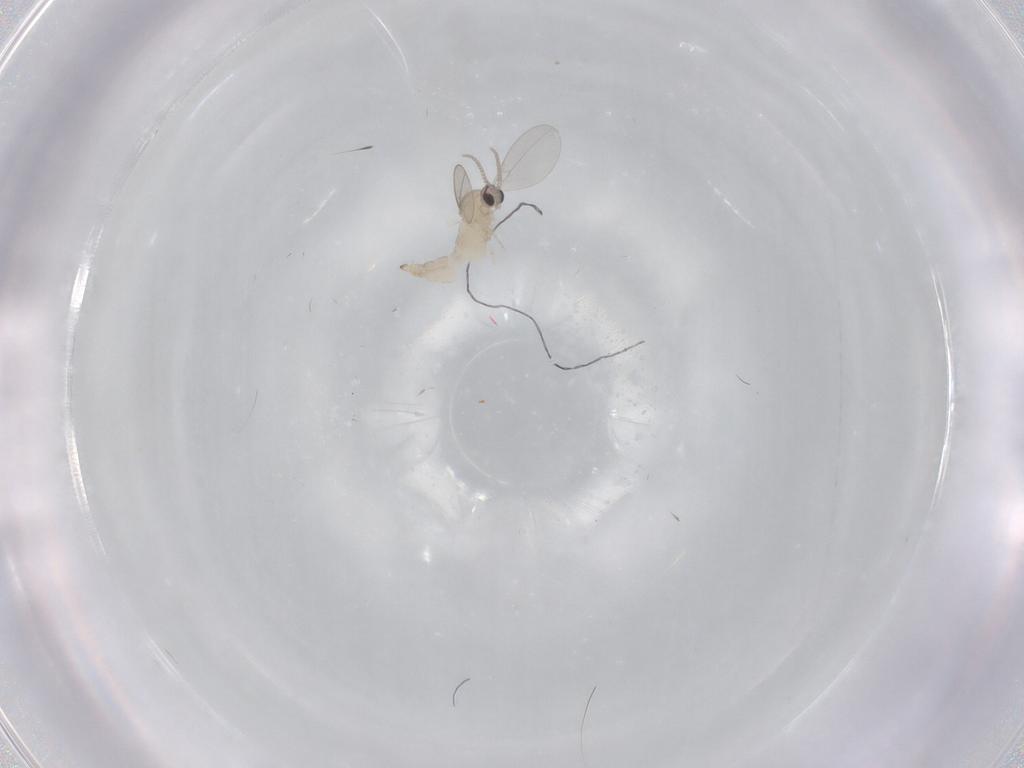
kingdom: Animalia
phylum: Arthropoda
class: Insecta
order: Diptera
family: Cecidomyiidae
